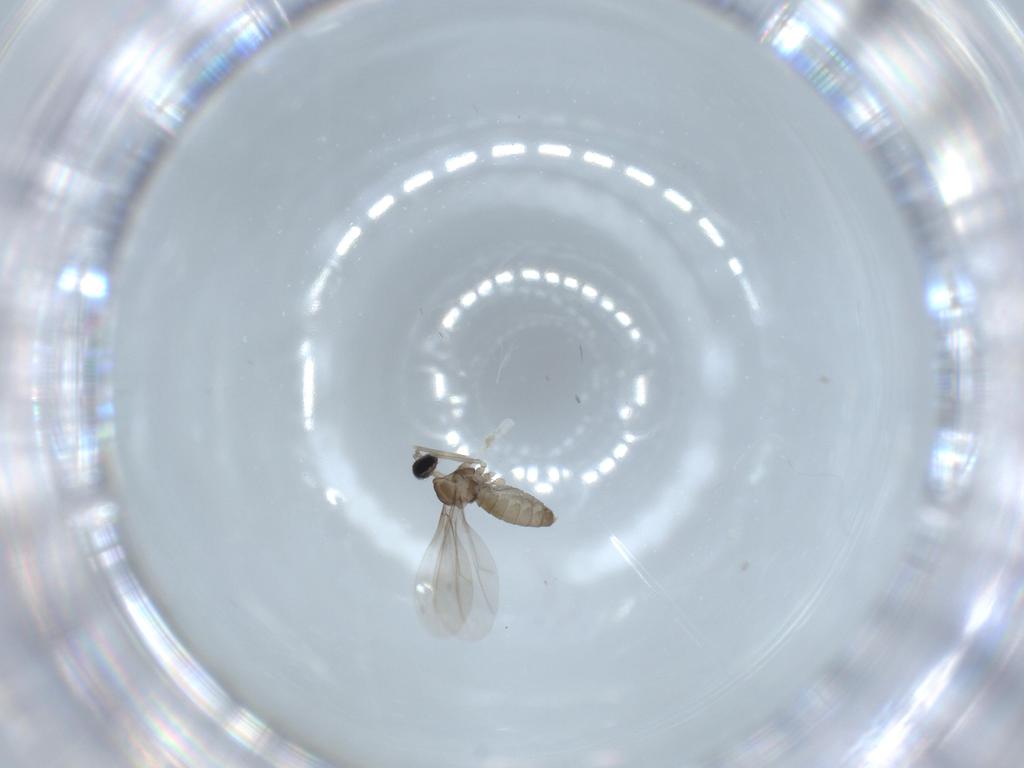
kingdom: Animalia
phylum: Arthropoda
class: Insecta
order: Diptera
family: Cecidomyiidae
